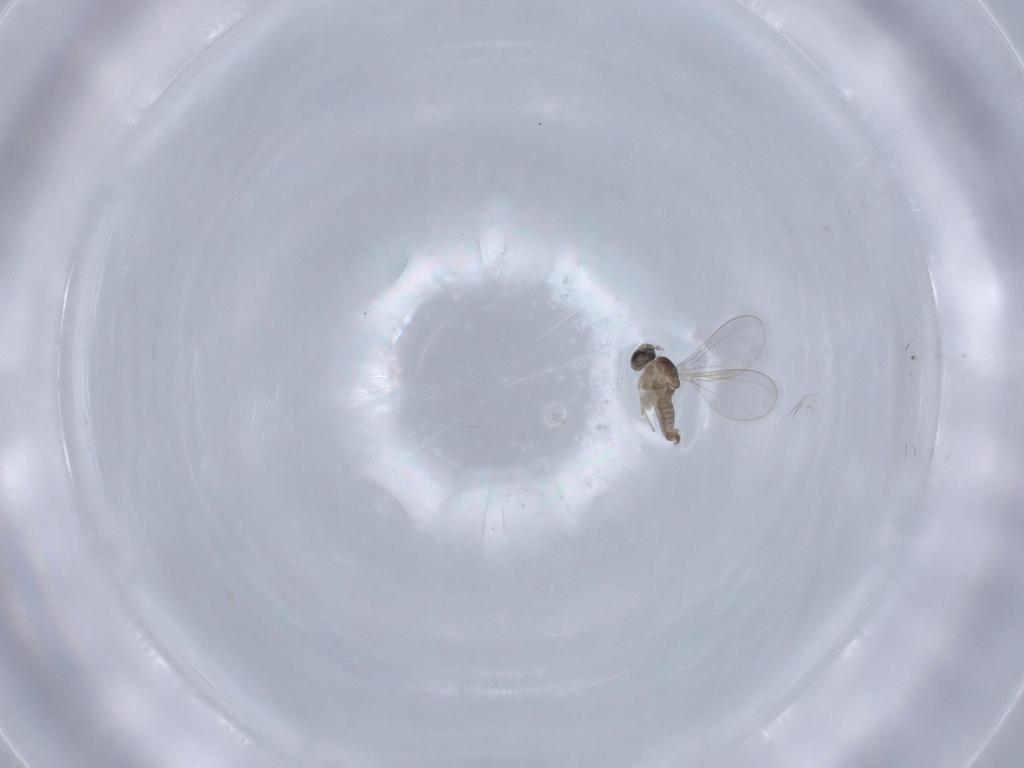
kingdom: Animalia
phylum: Arthropoda
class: Insecta
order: Diptera
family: Cecidomyiidae
